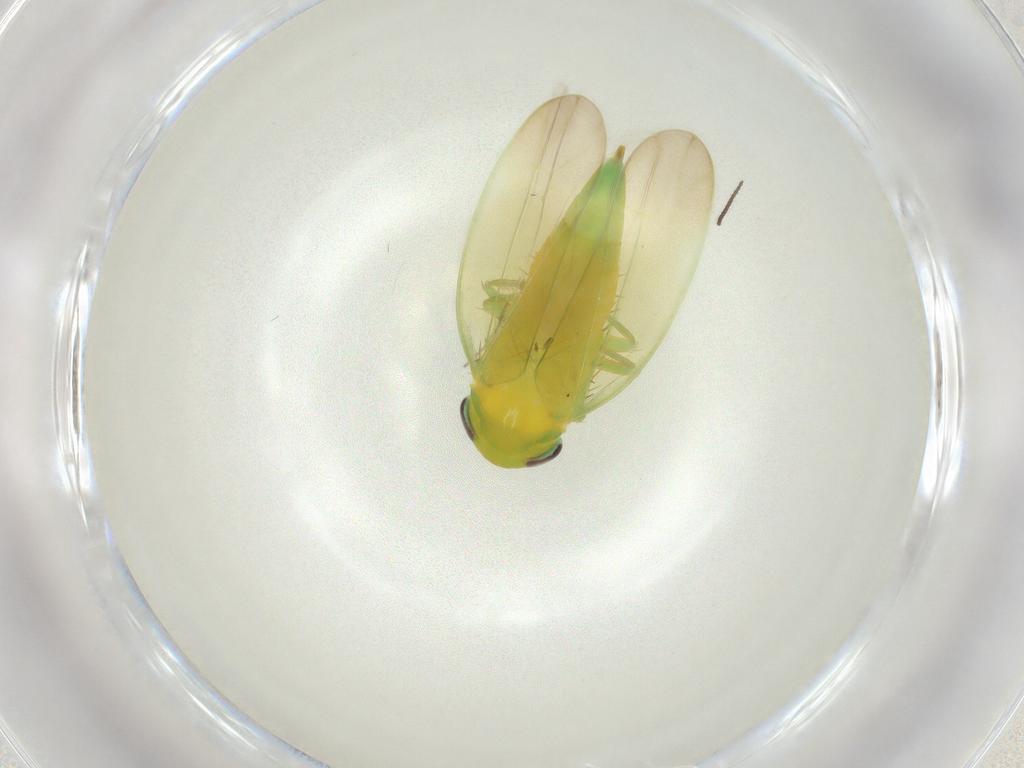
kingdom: Animalia
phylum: Arthropoda
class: Insecta
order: Hemiptera
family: Cicadellidae
